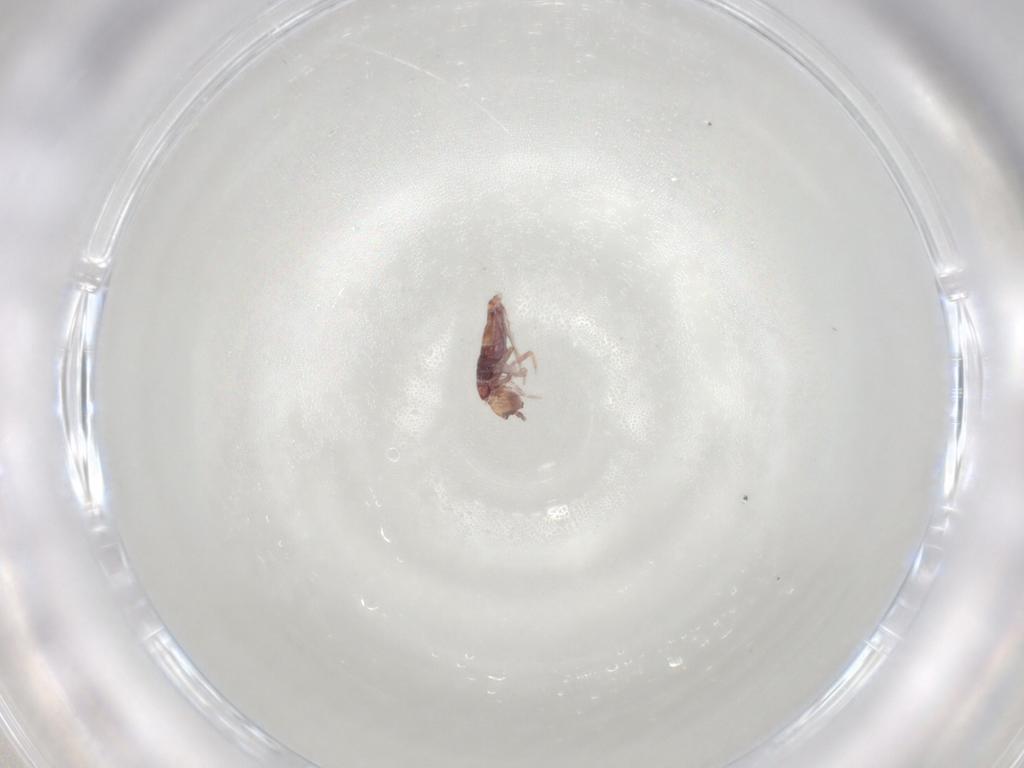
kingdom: Animalia
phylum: Arthropoda
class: Collembola
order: Entomobryomorpha
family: Entomobryidae
